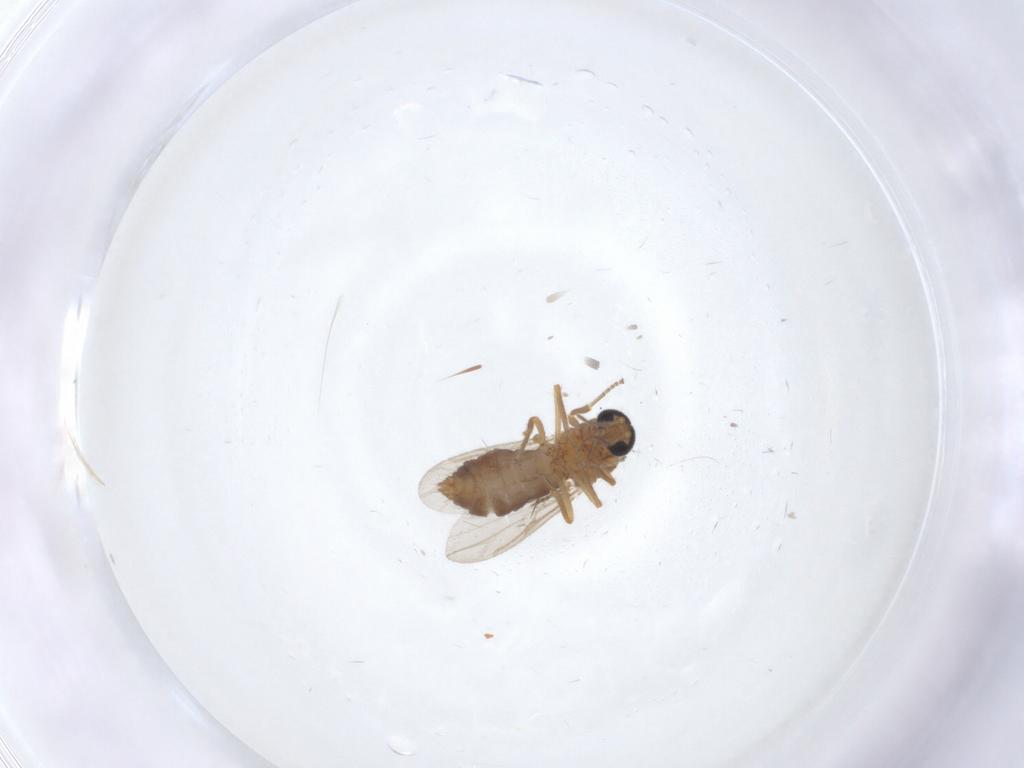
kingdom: Animalia
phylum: Arthropoda
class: Insecta
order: Diptera
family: Ceratopogonidae
